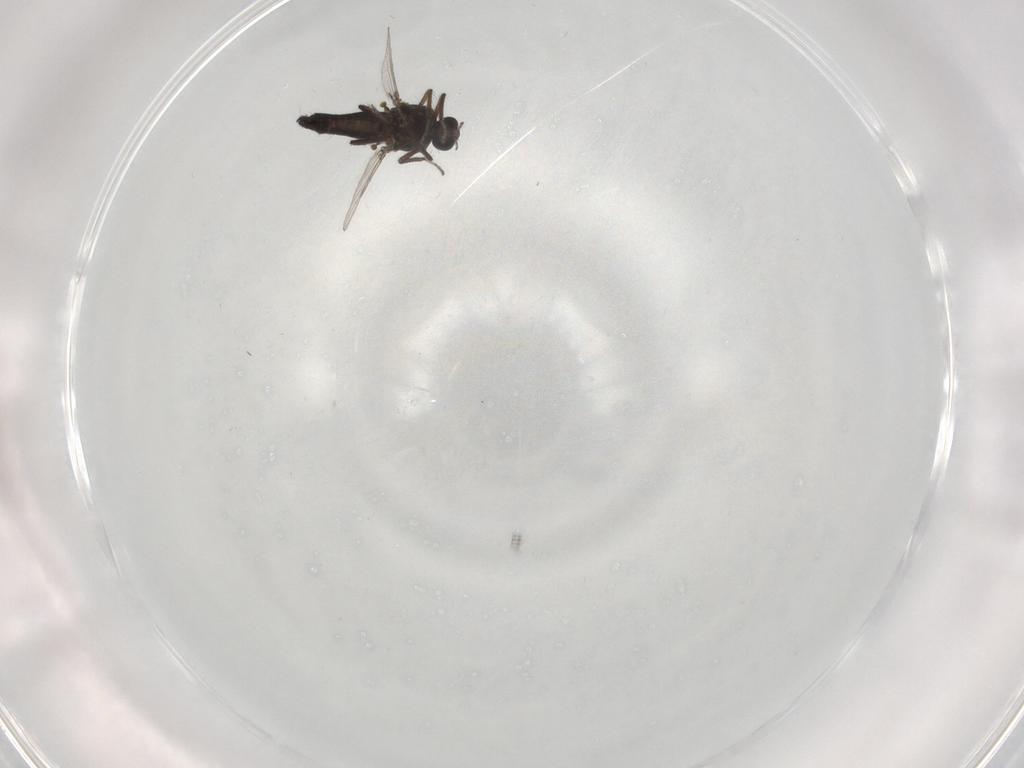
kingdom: Animalia
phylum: Arthropoda
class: Insecta
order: Diptera
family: Ceratopogonidae
